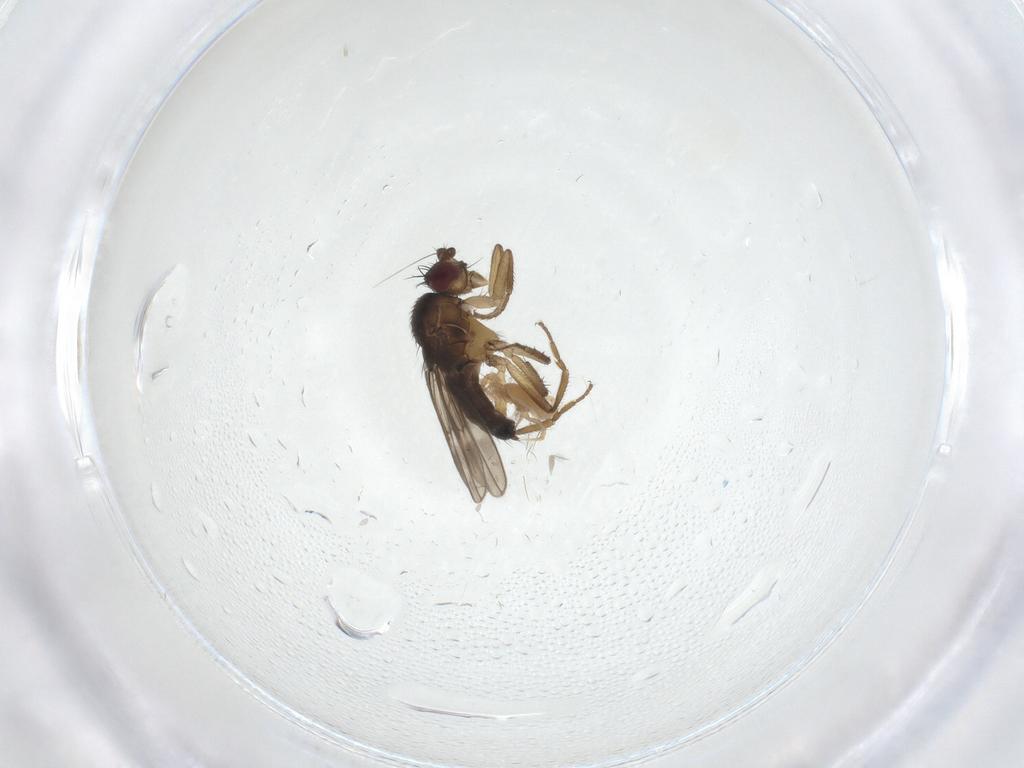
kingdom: Animalia
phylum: Arthropoda
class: Insecta
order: Diptera
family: Sphaeroceridae
